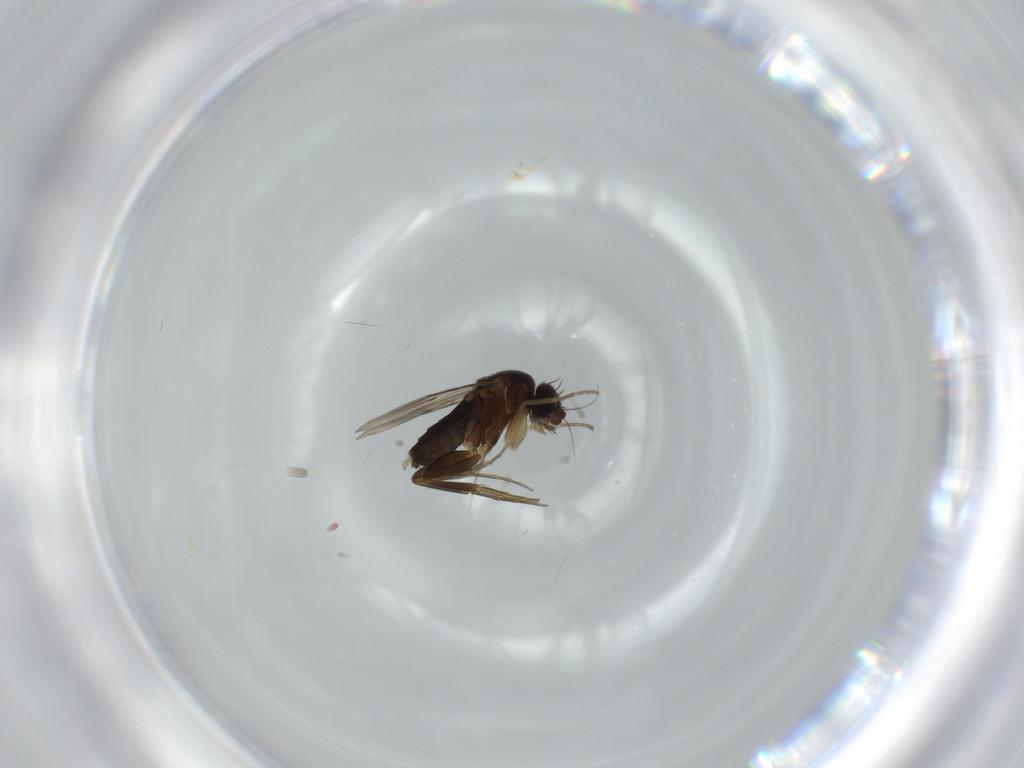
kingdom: Animalia
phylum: Arthropoda
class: Insecta
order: Diptera
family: Phoridae
